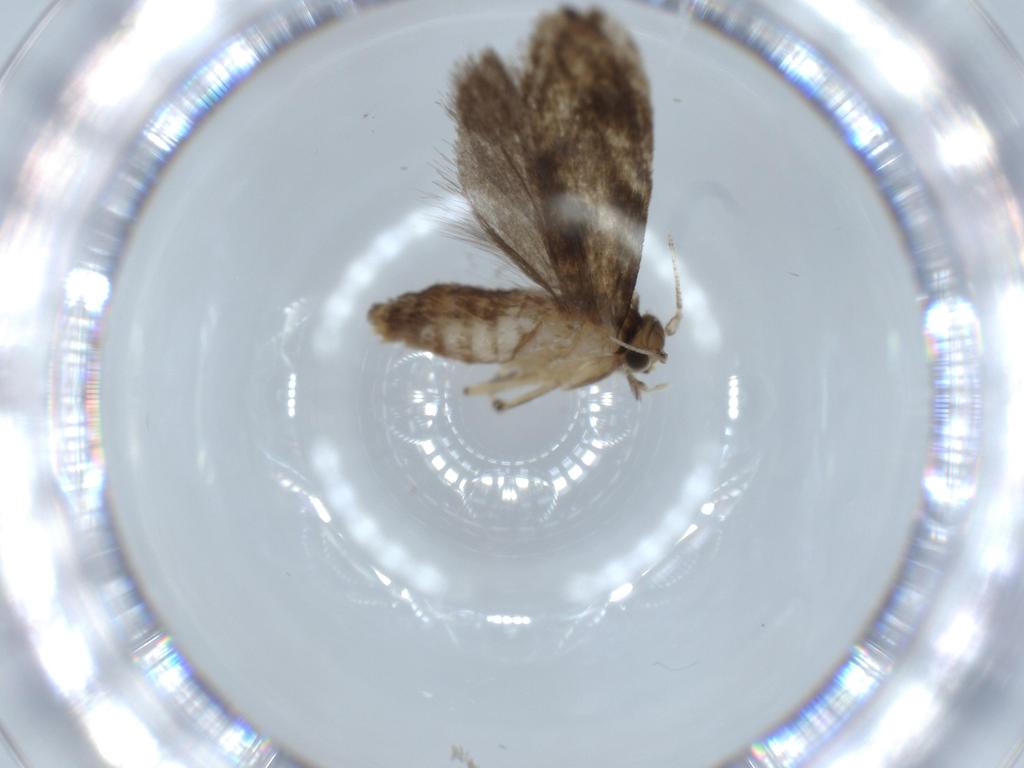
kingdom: Animalia
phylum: Arthropoda
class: Insecta
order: Lepidoptera
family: Tineidae
